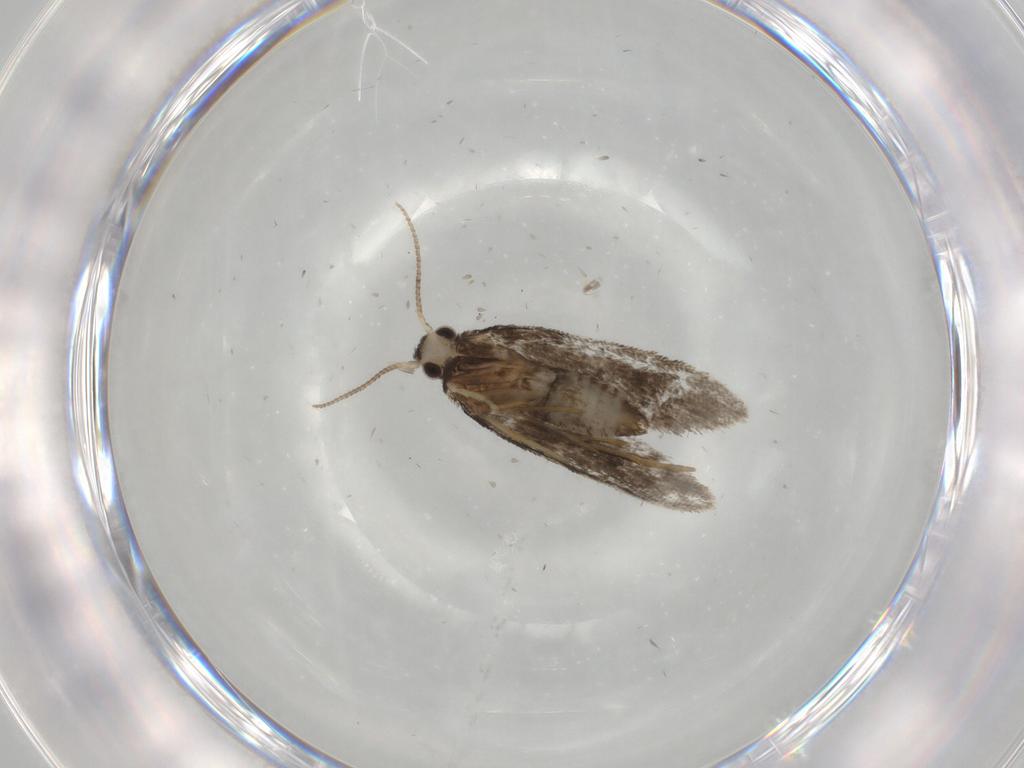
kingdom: Animalia
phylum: Arthropoda
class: Insecta
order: Lepidoptera
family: Psychidae
